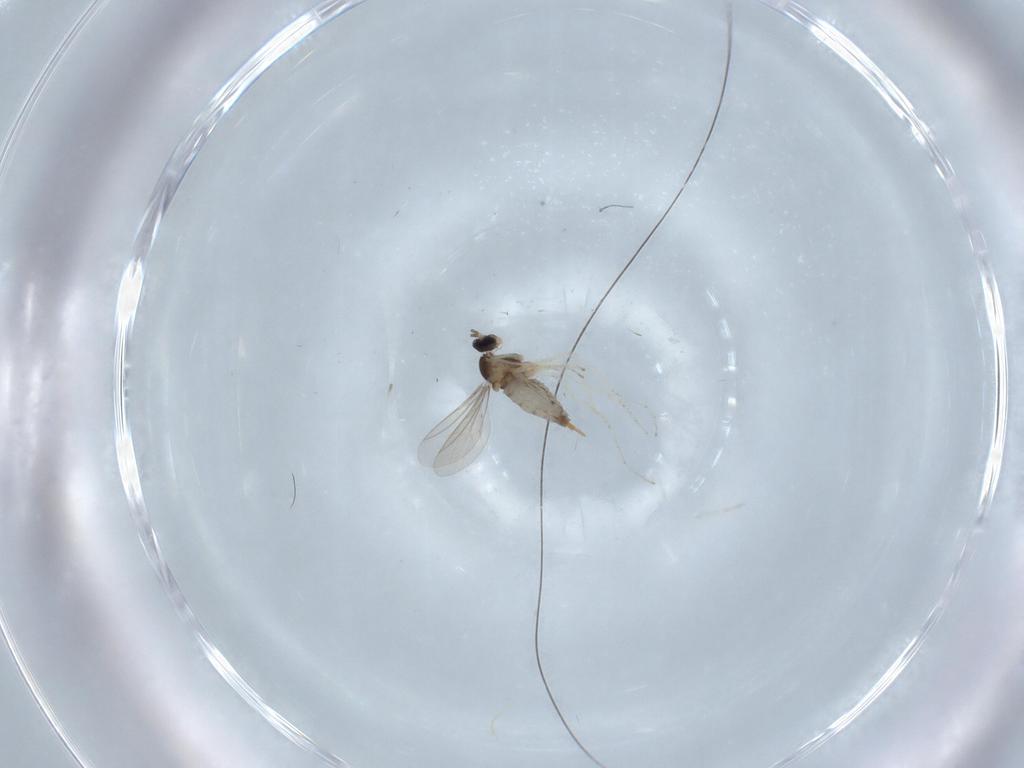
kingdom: Animalia
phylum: Arthropoda
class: Insecta
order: Diptera
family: Cecidomyiidae
